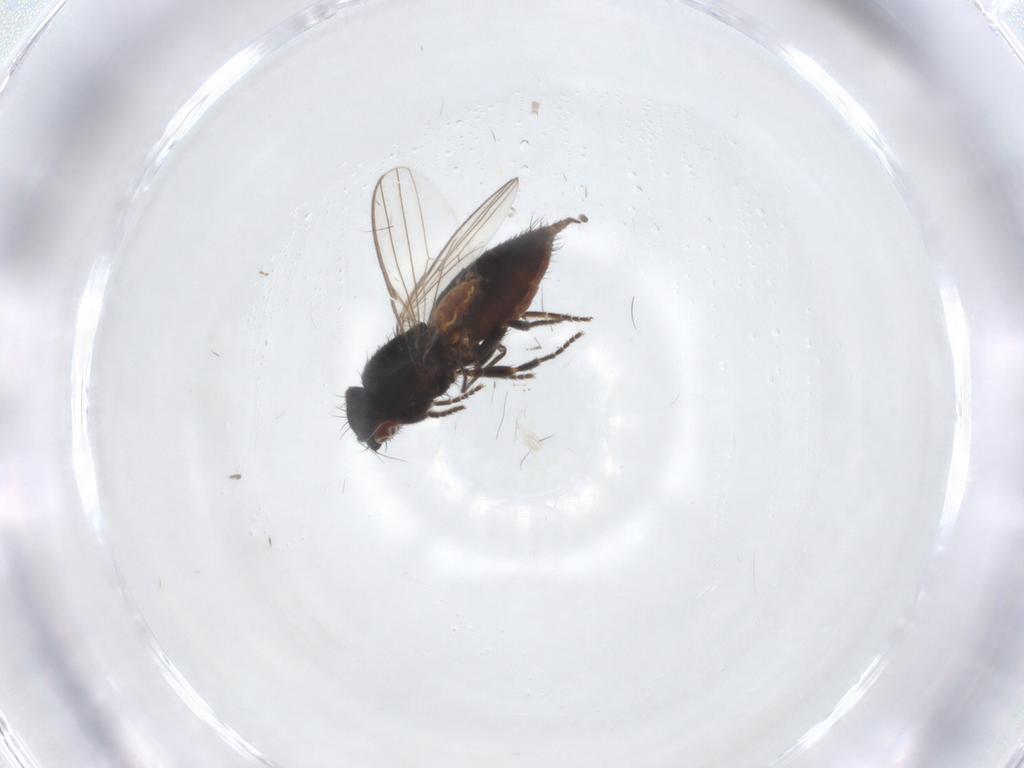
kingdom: Animalia
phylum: Arthropoda
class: Insecta
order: Diptera
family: Milichiidae
